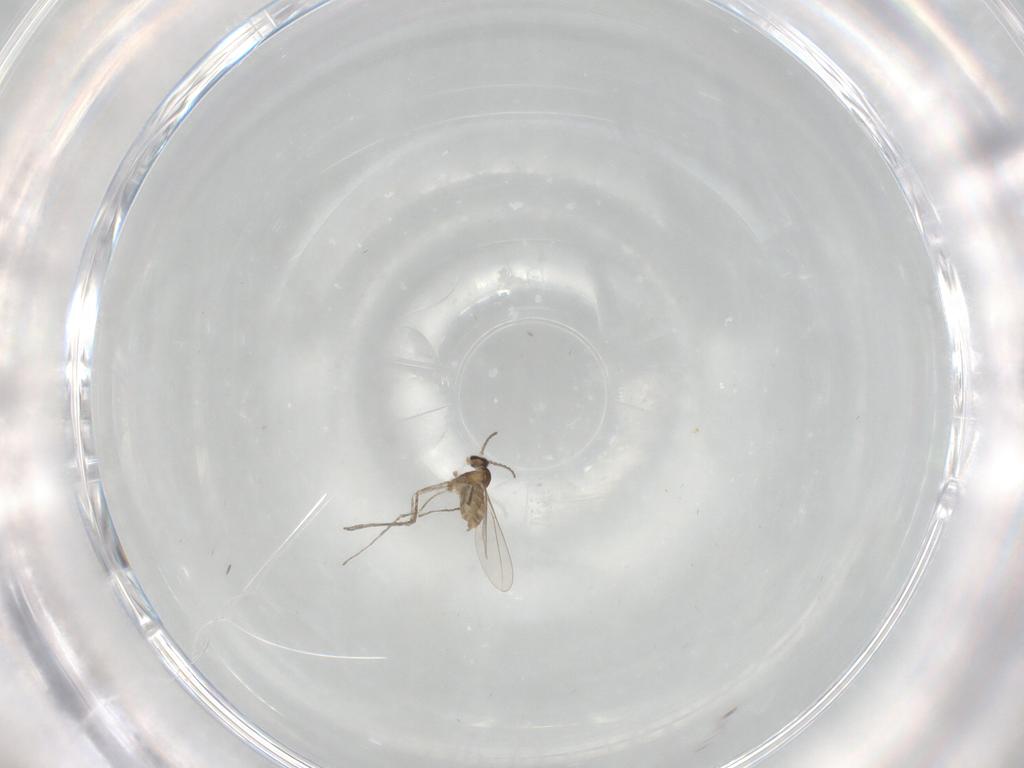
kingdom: Animalia
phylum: Arthropoda
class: Insecta
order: Diptera
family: Cecidomyiidae
